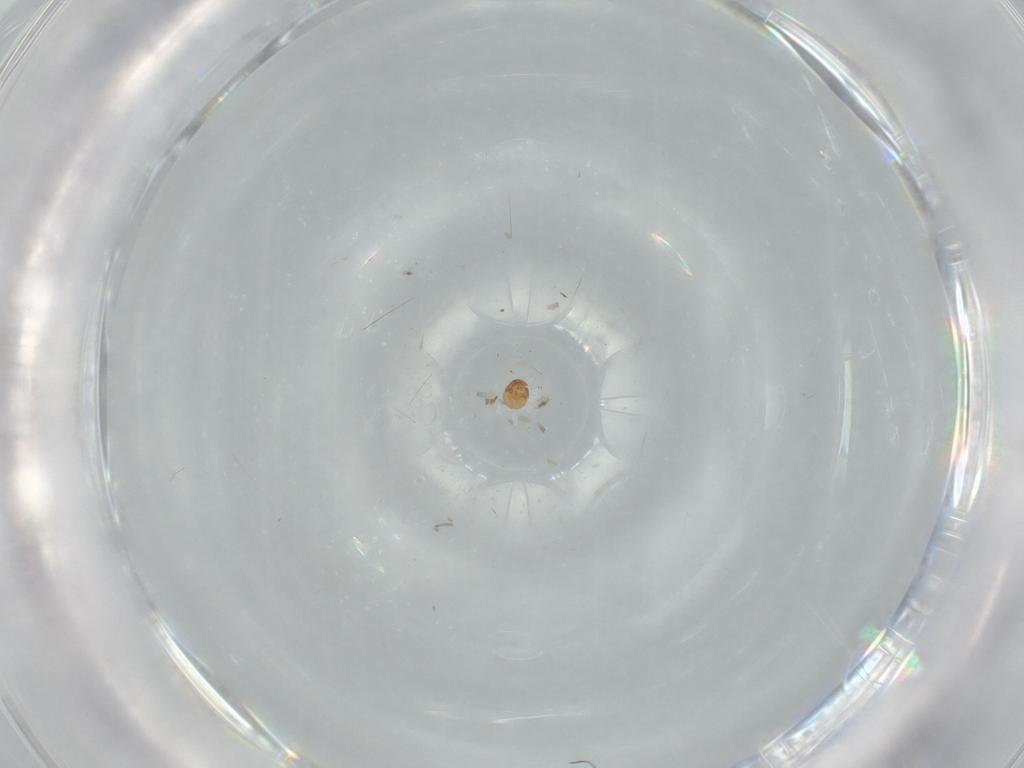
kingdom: Animalia
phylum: Arthropoda
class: Arachnida
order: Trombidiformes
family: Scutacaridae
